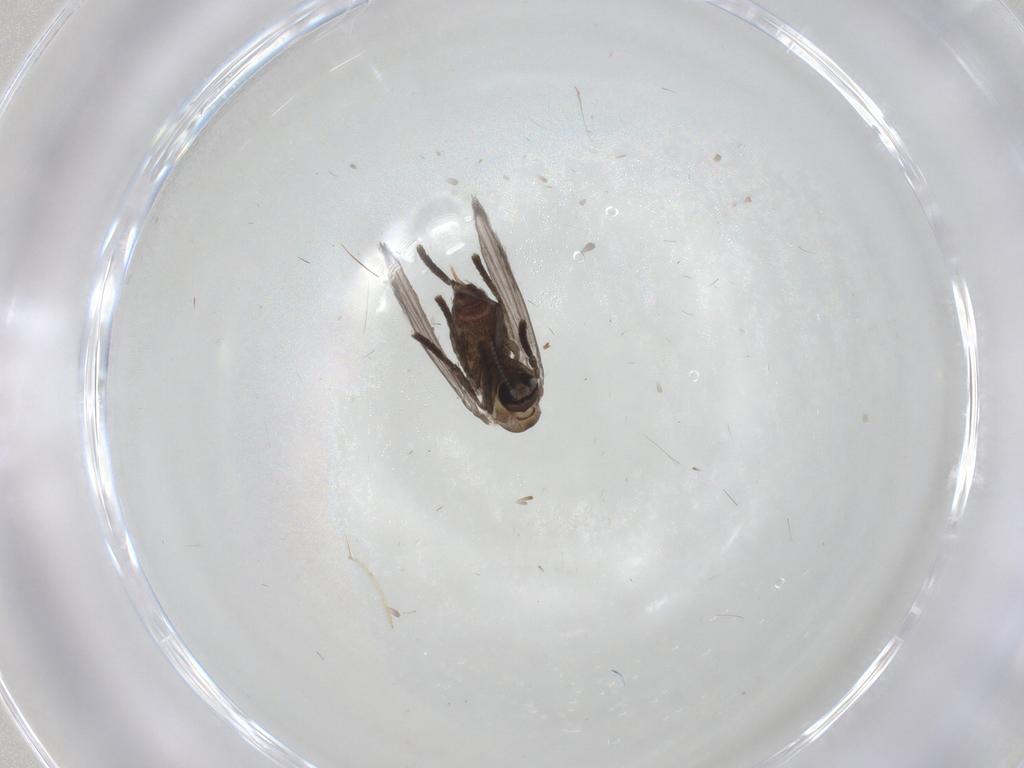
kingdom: Animalia
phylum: Arthropoda
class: Insecta
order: Diptera
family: Psychodidae
